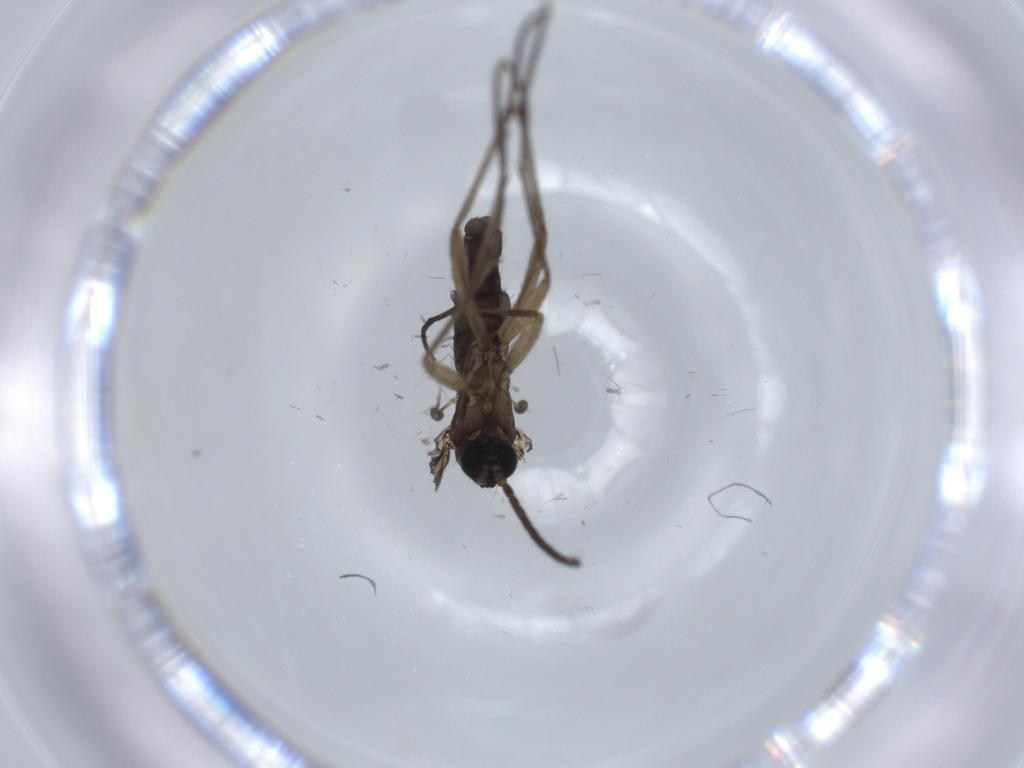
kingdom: Animalia
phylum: Arthropoda
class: Insecta
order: Diptera
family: Sciaridae
